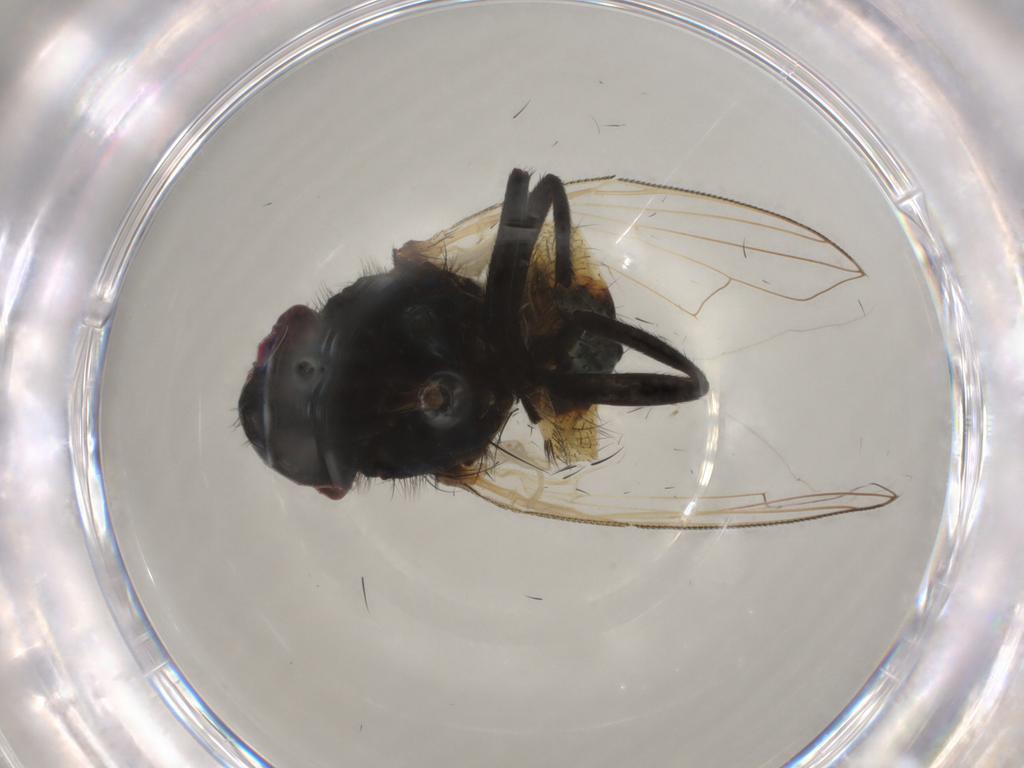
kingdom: Animalia
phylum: Arthropoda
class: Insecta
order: Diptera
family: Muscidae
